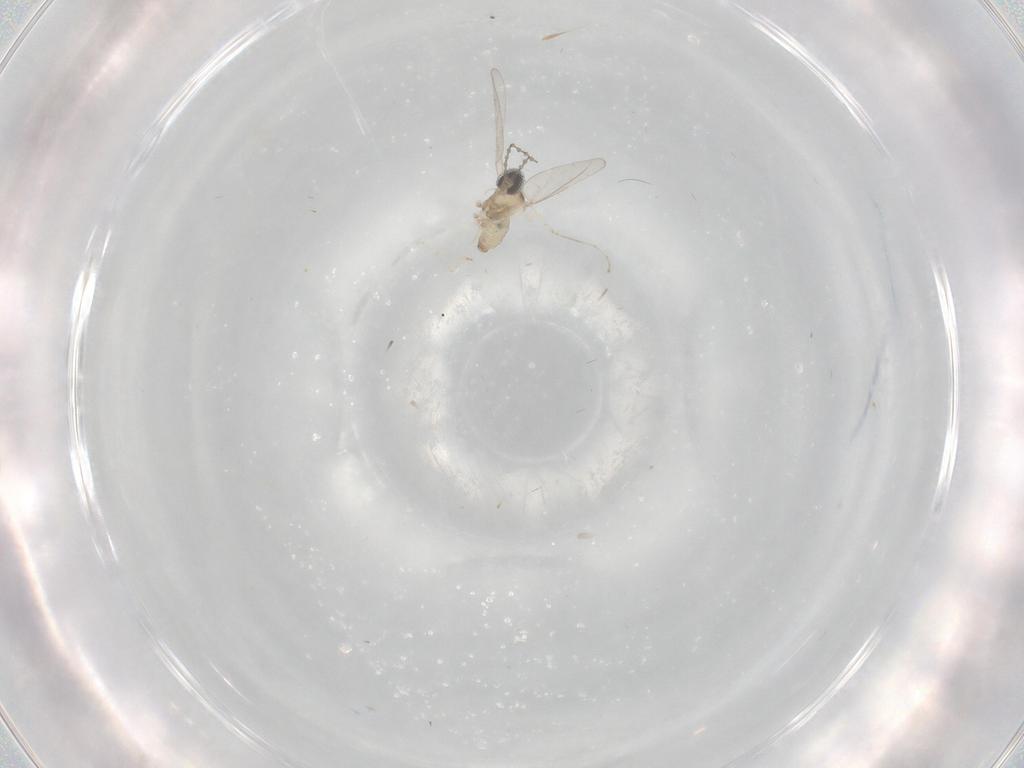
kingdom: Animalia
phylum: Arthropoda
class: Insecta
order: Diptera
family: Cecidomyiidae
